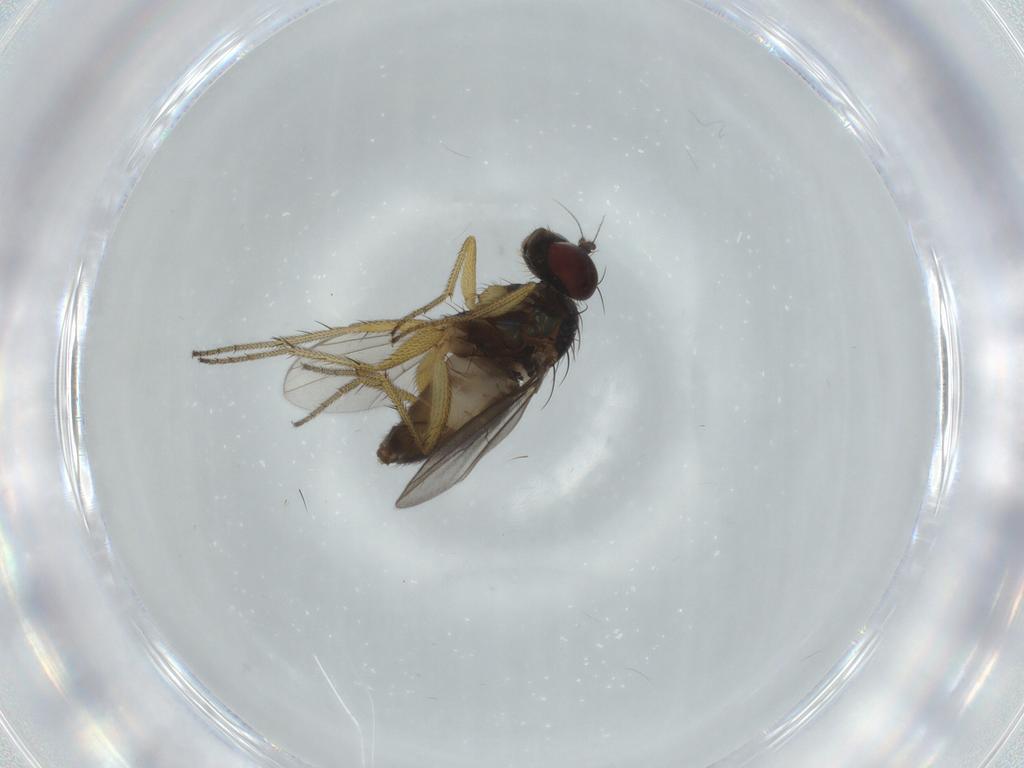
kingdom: Animalia
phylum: Arthropoda
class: Insecta
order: Diptera
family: Dolichopodidae
